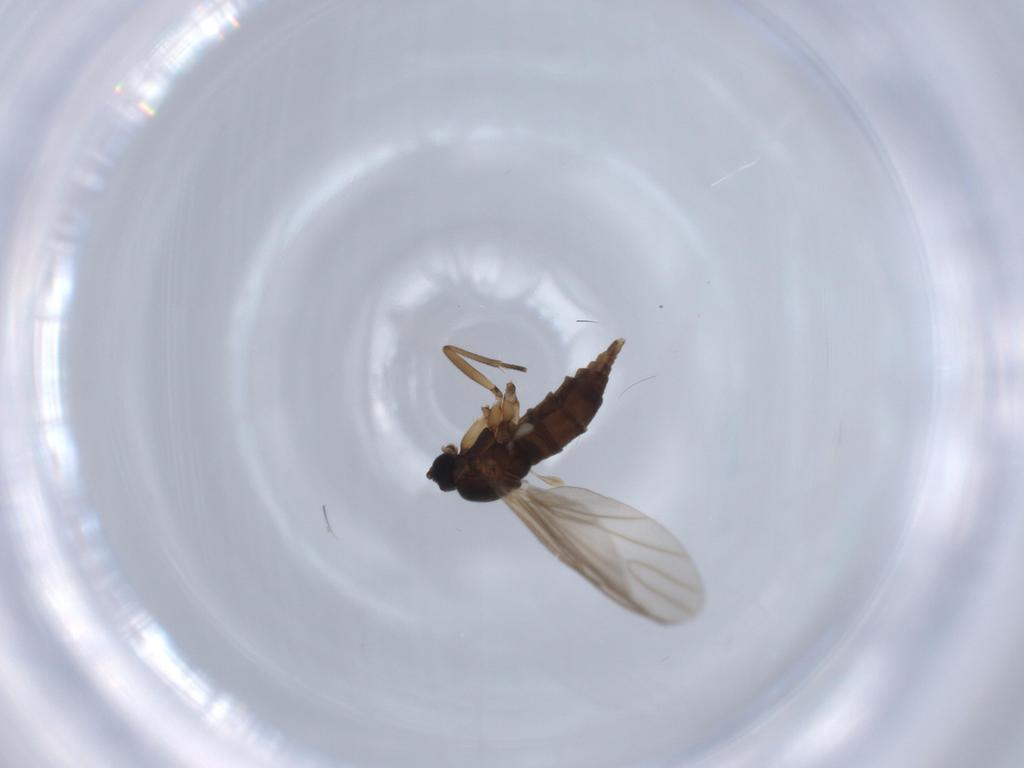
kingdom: Animalia
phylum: Arthropoda
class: Insecta
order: Diptera
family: Sciaridae
